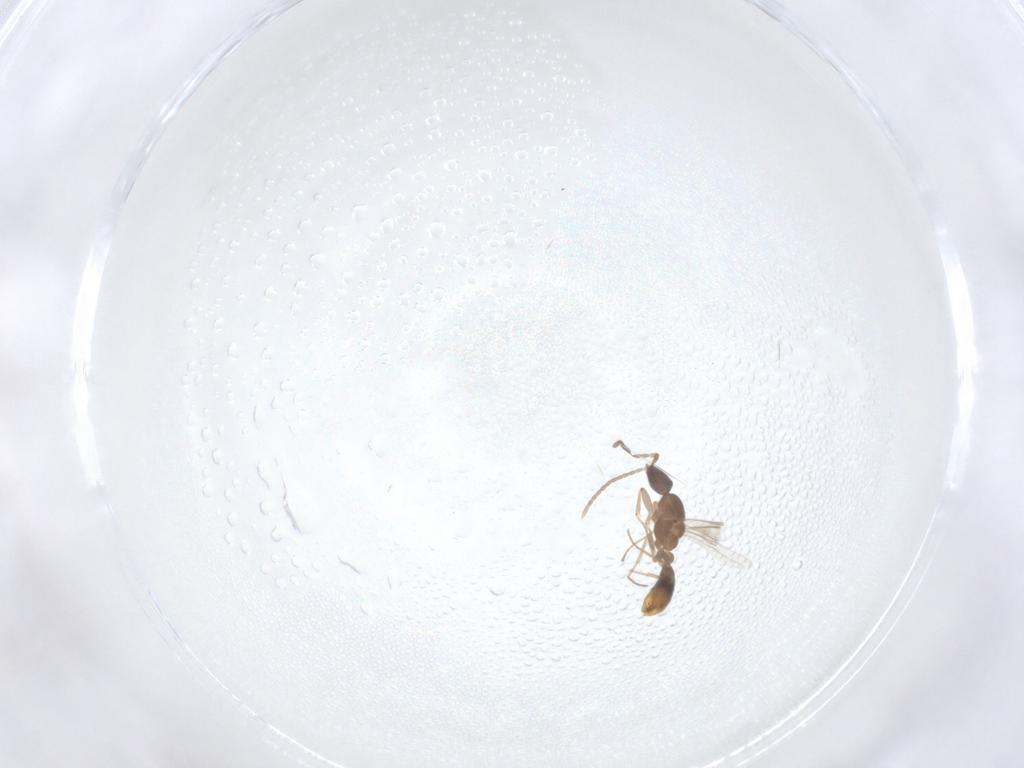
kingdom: Animalia
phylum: Arthropoda
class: Insecta
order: Hymenoptera
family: Formicidae
